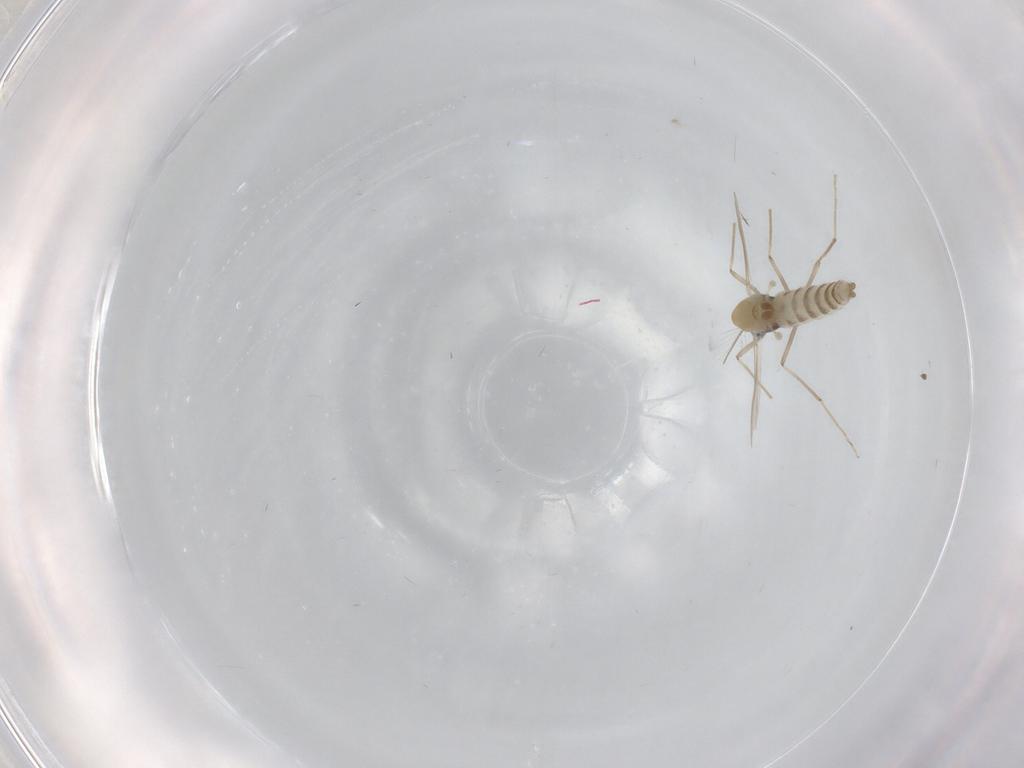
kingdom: Animalia
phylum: Arthropoda
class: Insecta
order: Diptera
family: Chironomidae
